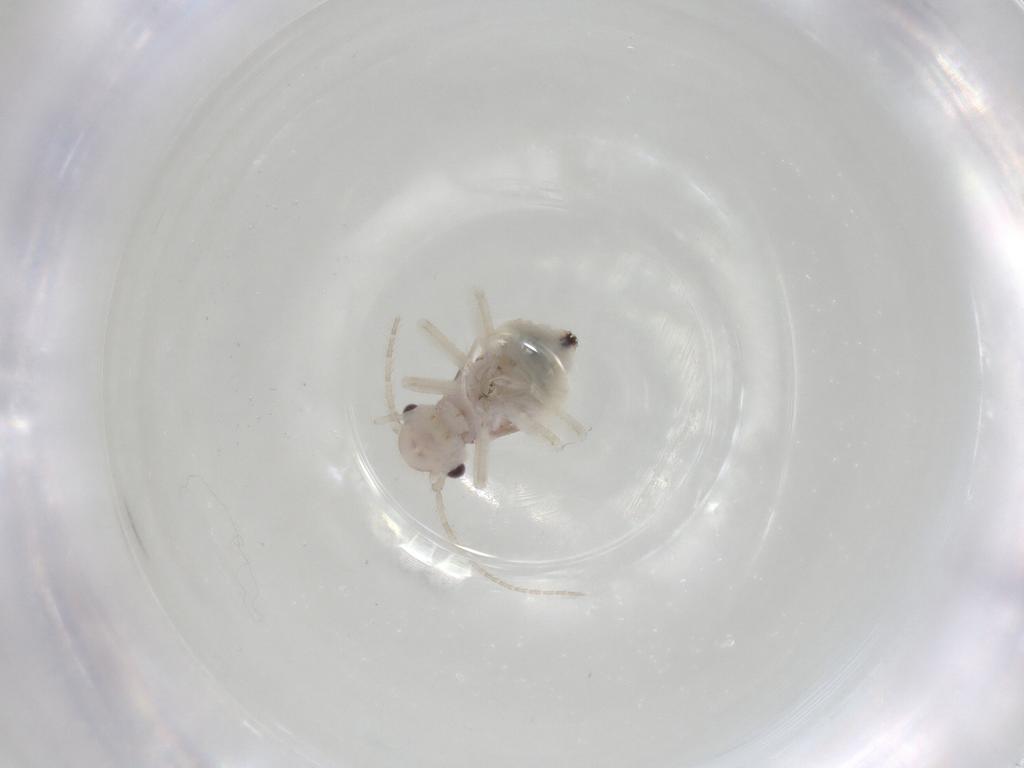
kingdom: Animalia
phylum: Arthropoda
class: Insecta
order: Psocodea
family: Amphipsocidae
